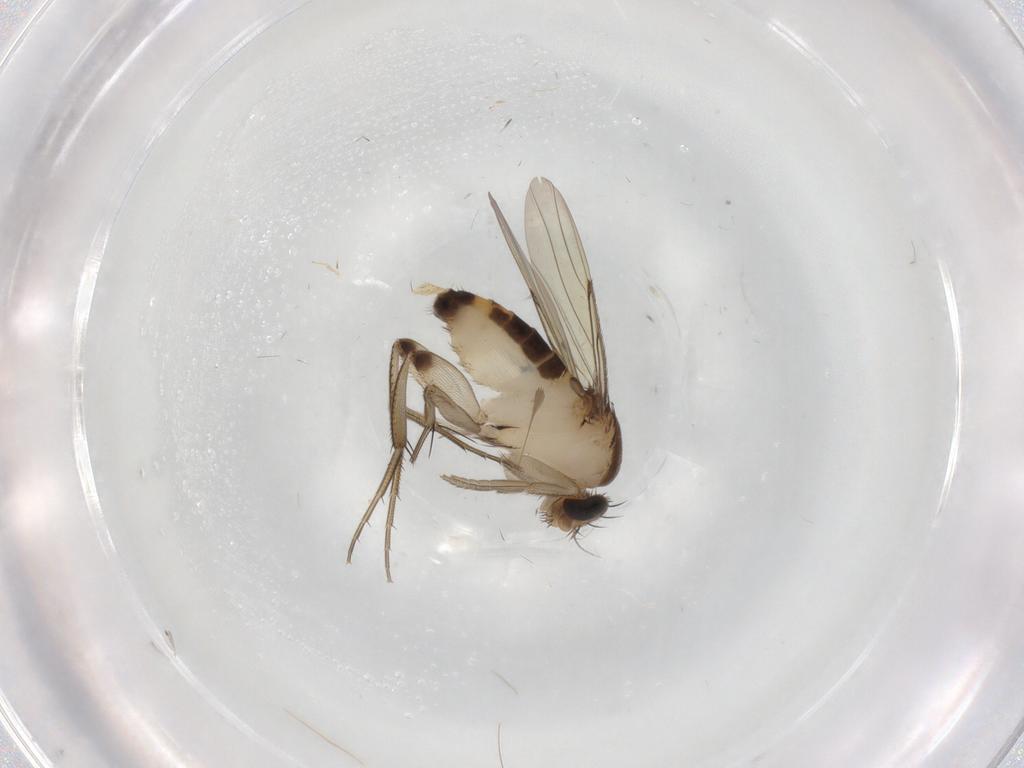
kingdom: Animalia
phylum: Arthropoda
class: Insecta
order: Diptera
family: Phoridae
